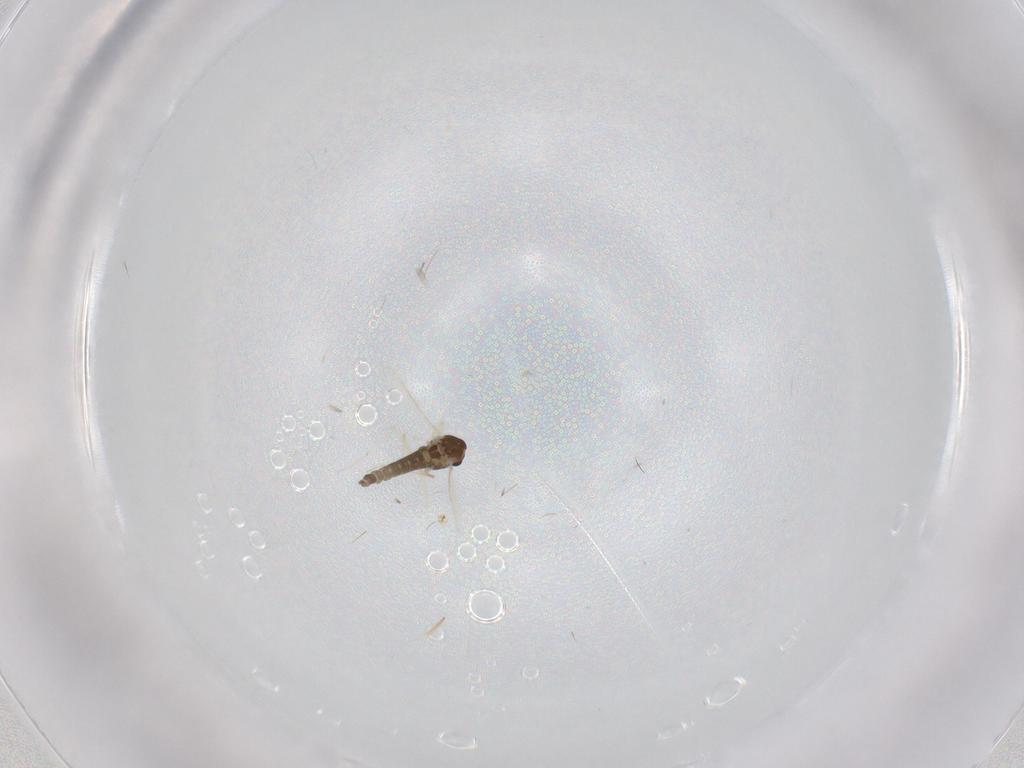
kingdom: Animalia
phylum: Arthropoda
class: Insecta
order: Diptera
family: Chironomidae
